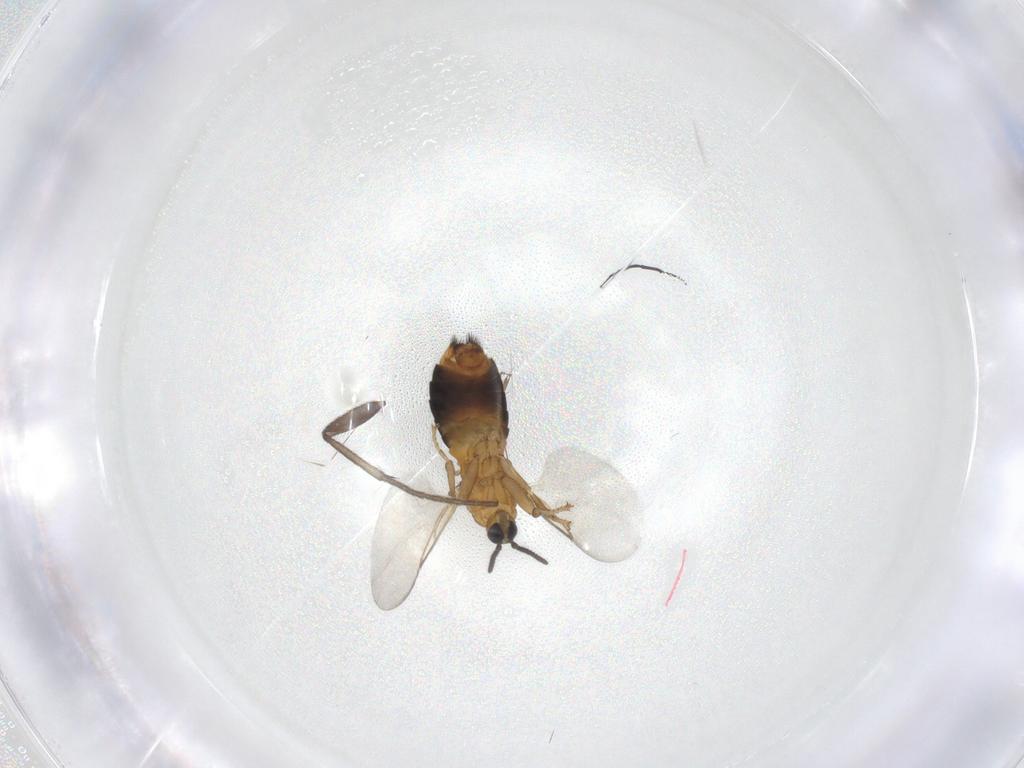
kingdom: Animalia
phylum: Arthropoda
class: Insecta
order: Diptera
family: Scatopsidae
